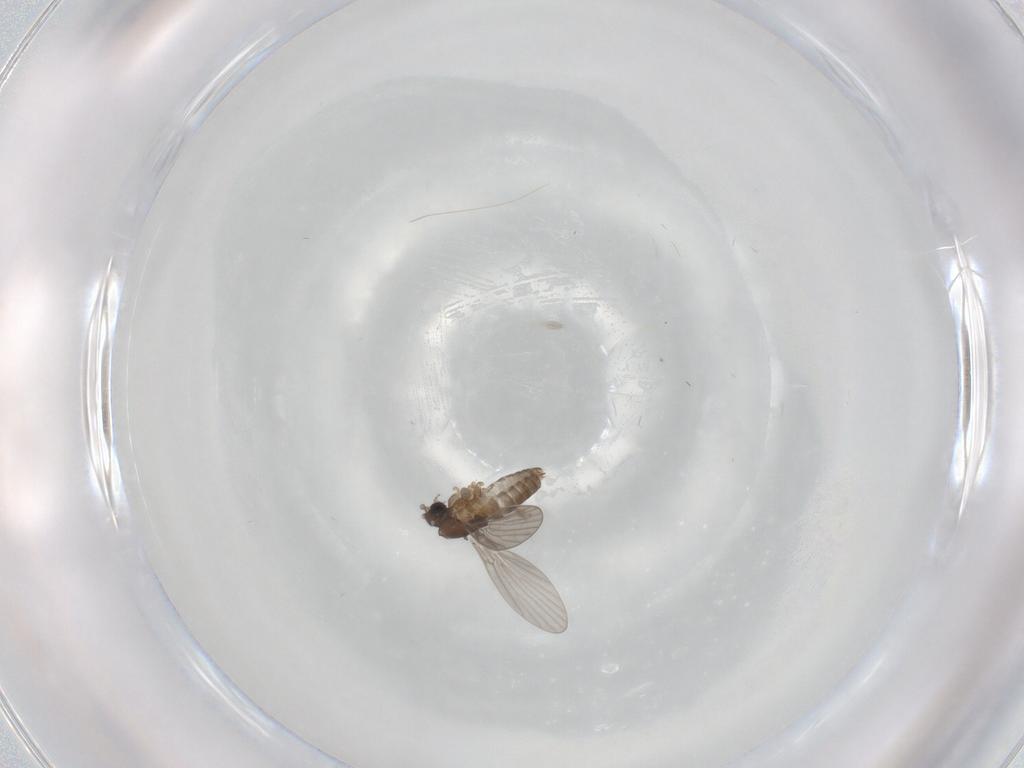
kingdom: Animalia
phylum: Arthropoda
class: Insecta
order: Diptera
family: Cecidomyiidae
